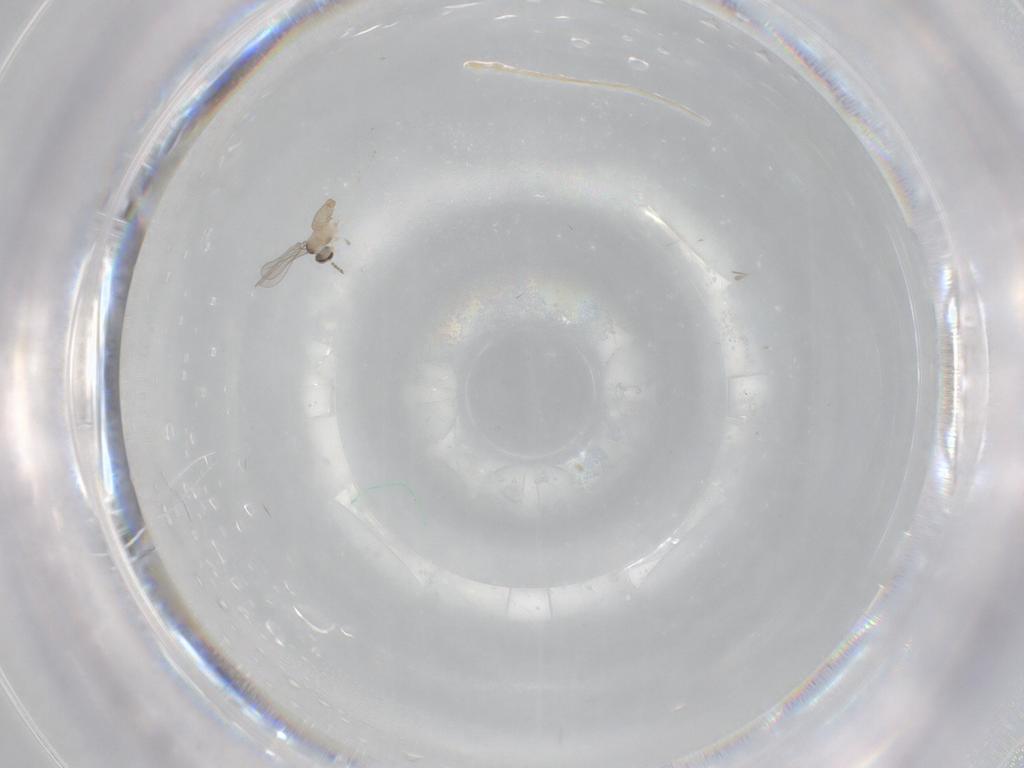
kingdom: Animalia
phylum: Arthropoda
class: Insecta
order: Diptera
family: Cecidomyiidae
